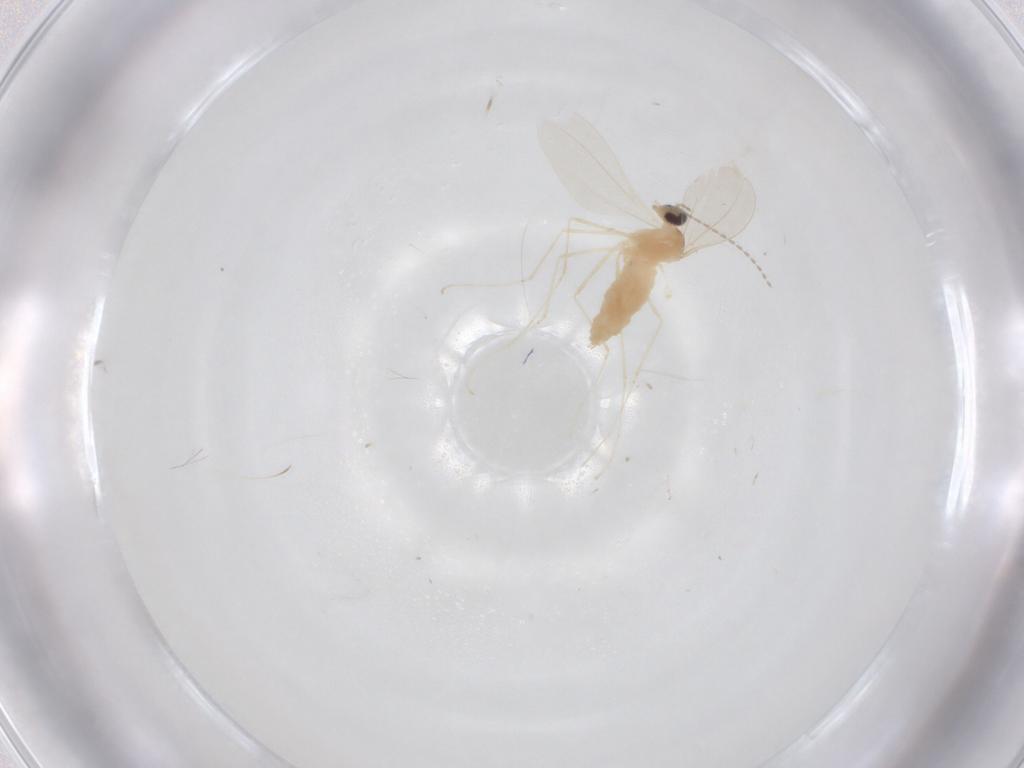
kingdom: Animalia
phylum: Arthropoda
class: Insecta
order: Diptera
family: Cecidomyiidae
